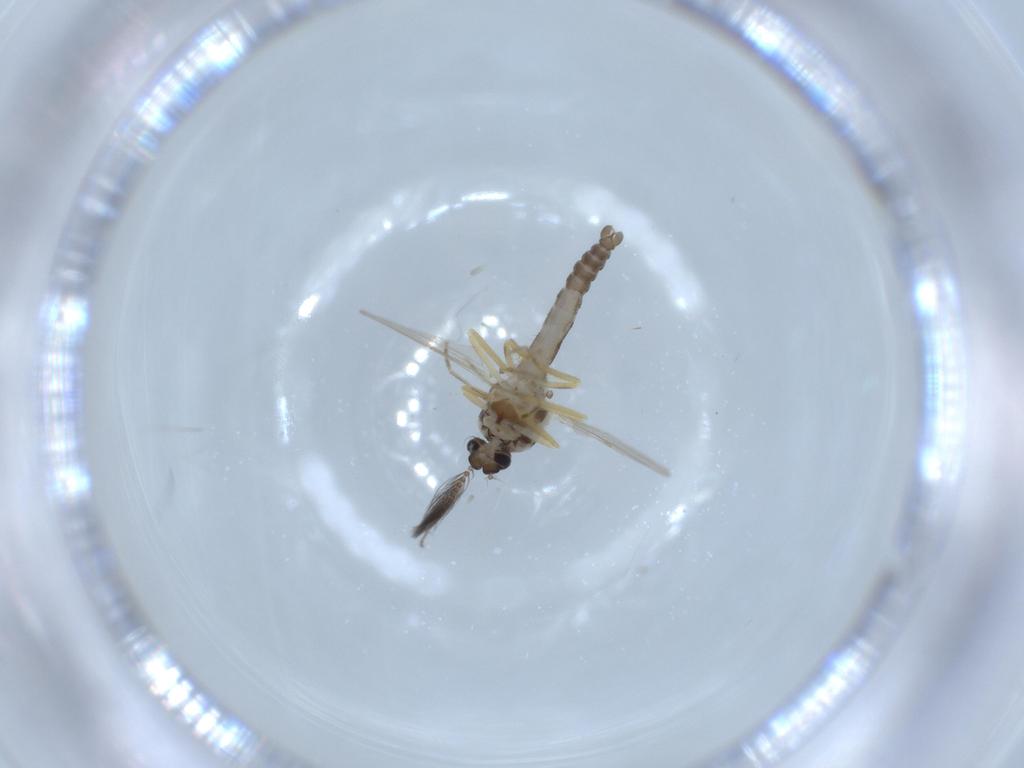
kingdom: Animalia
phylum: Arthropoda
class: Insecta
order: Diptera
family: Ceratopogonidae
